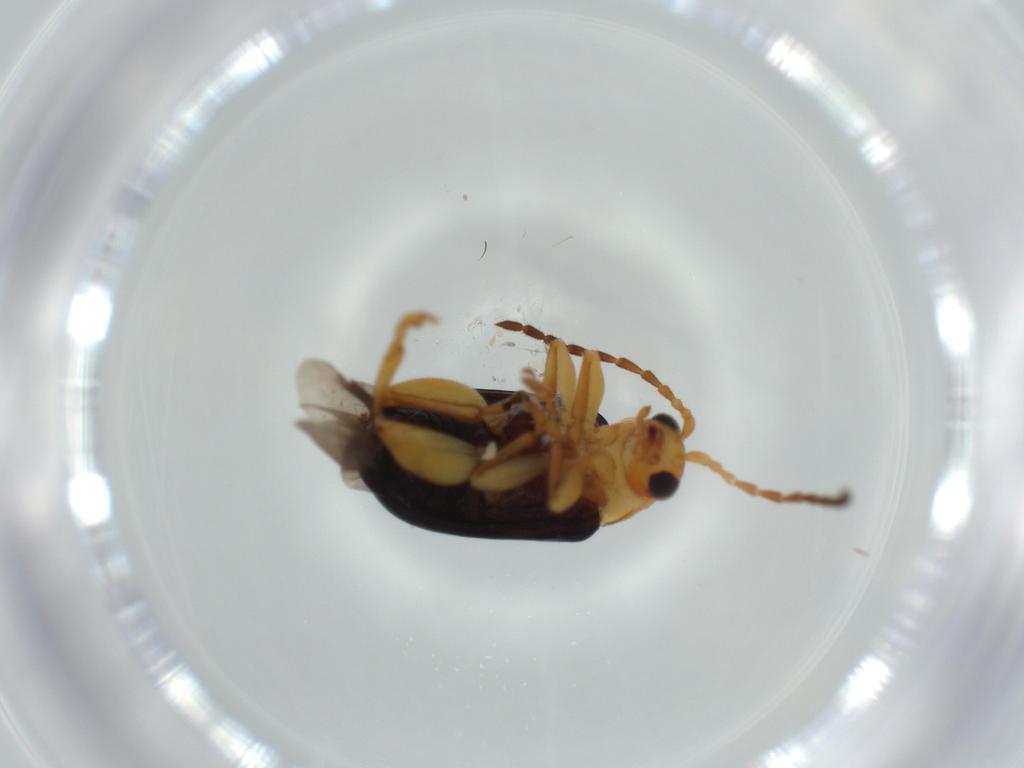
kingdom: Animalia
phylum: Arthropoda
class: Insecta
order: Coleoptera
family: Chrysomelidae
